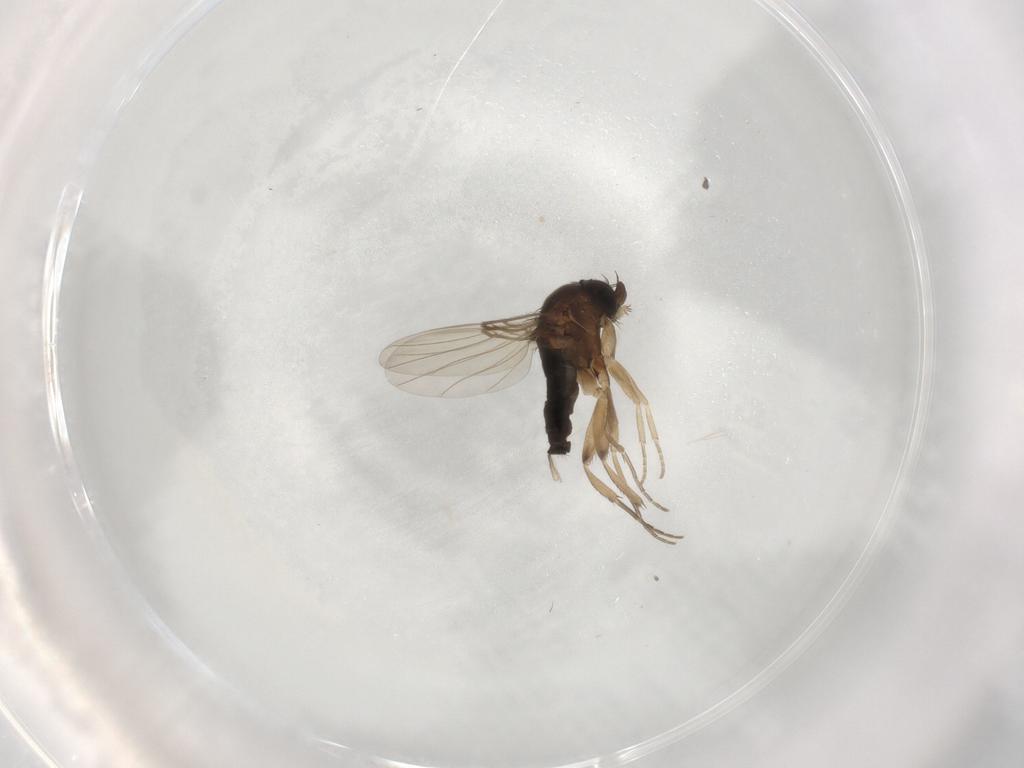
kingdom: Animalia
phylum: Arthropoda
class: Insecta
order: Diptera
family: Phoridae
